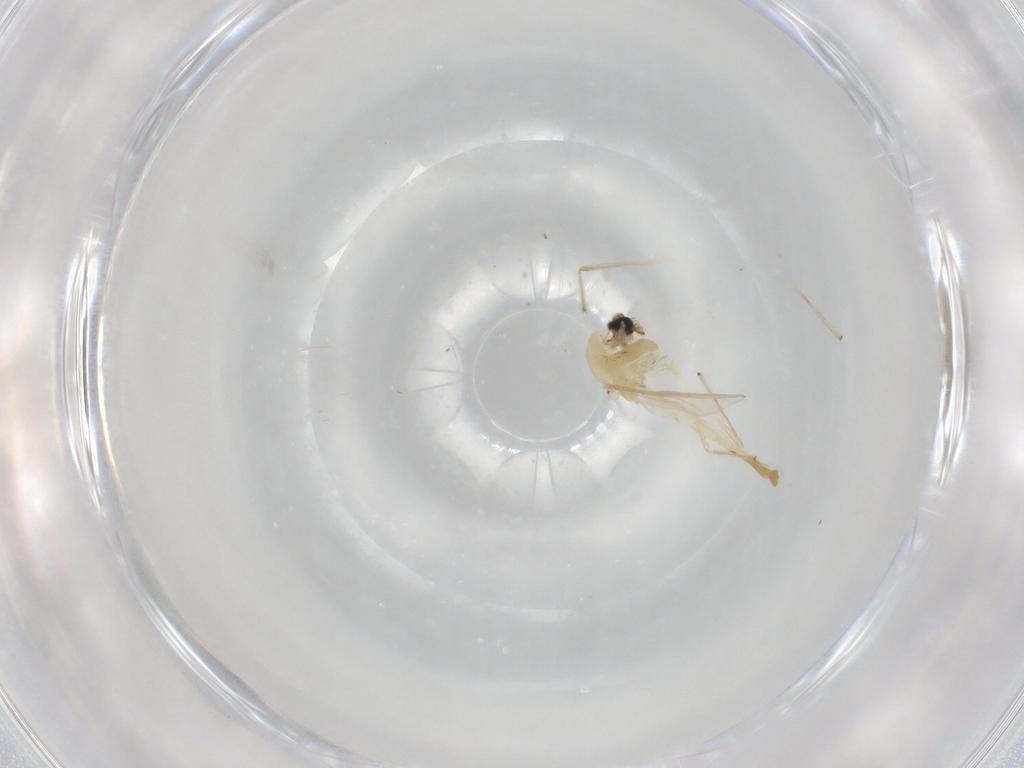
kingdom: Animalia
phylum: Arthropoda
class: Insecta
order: Diptera
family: Chironomidae
